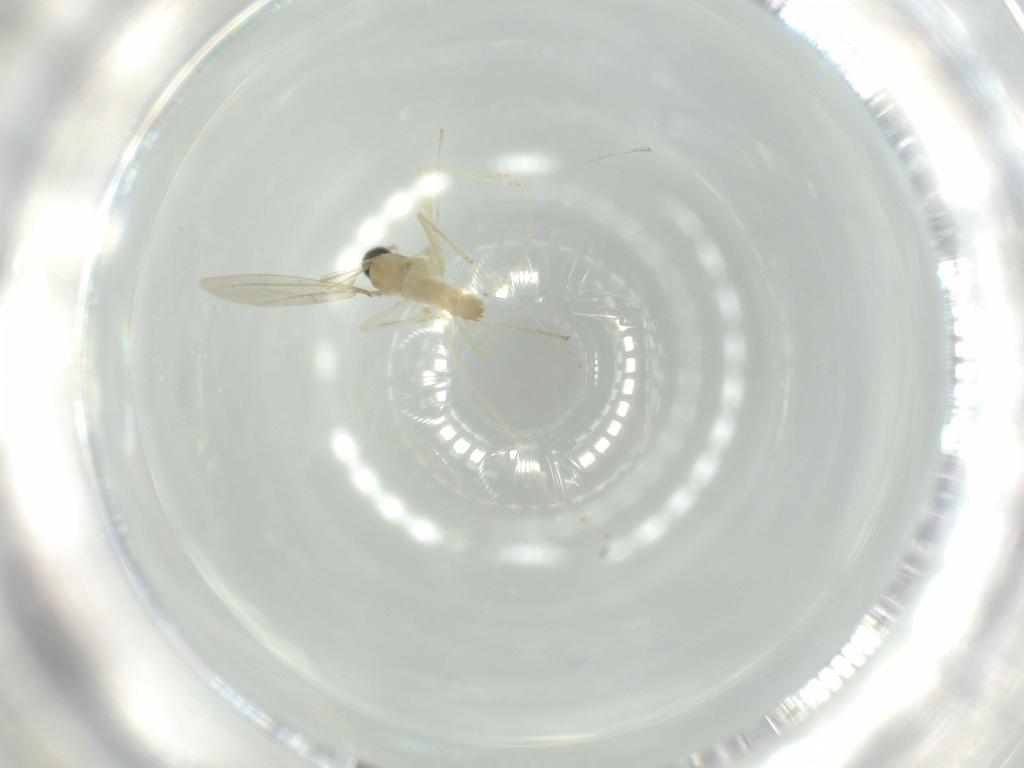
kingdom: Animalia
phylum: Arthropoda
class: Insecta
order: Diptera
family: Cecidomyiidae
